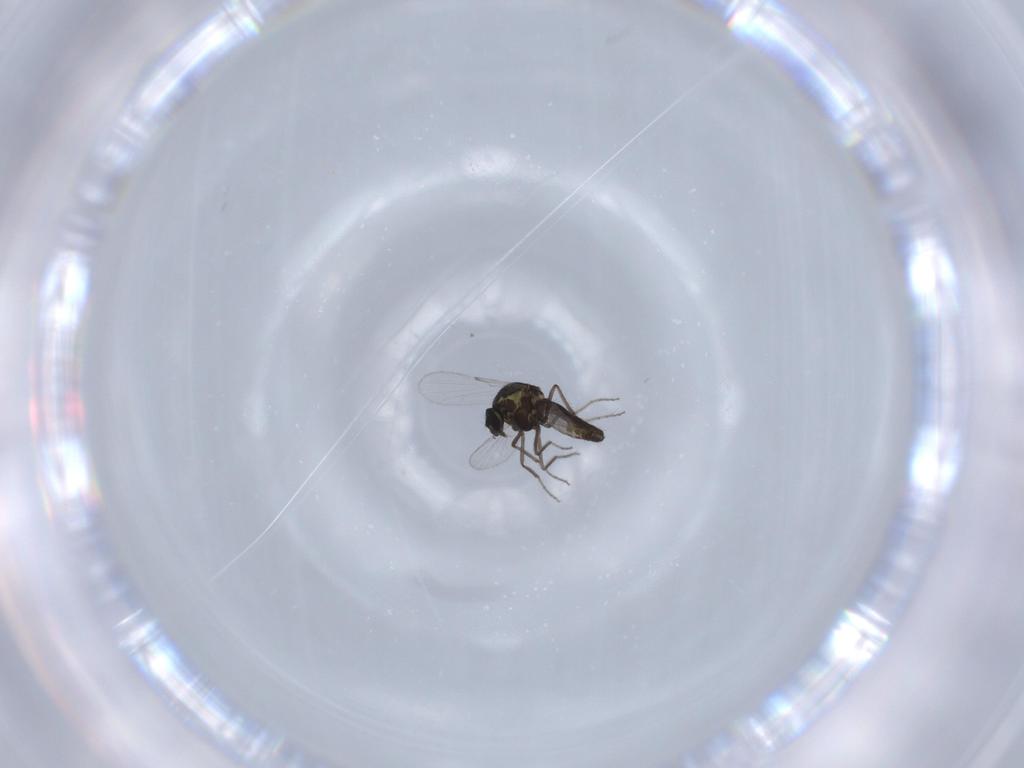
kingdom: Animalia
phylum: Arthropoda
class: Insecta
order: Diptera
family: Ceratopogonidae
